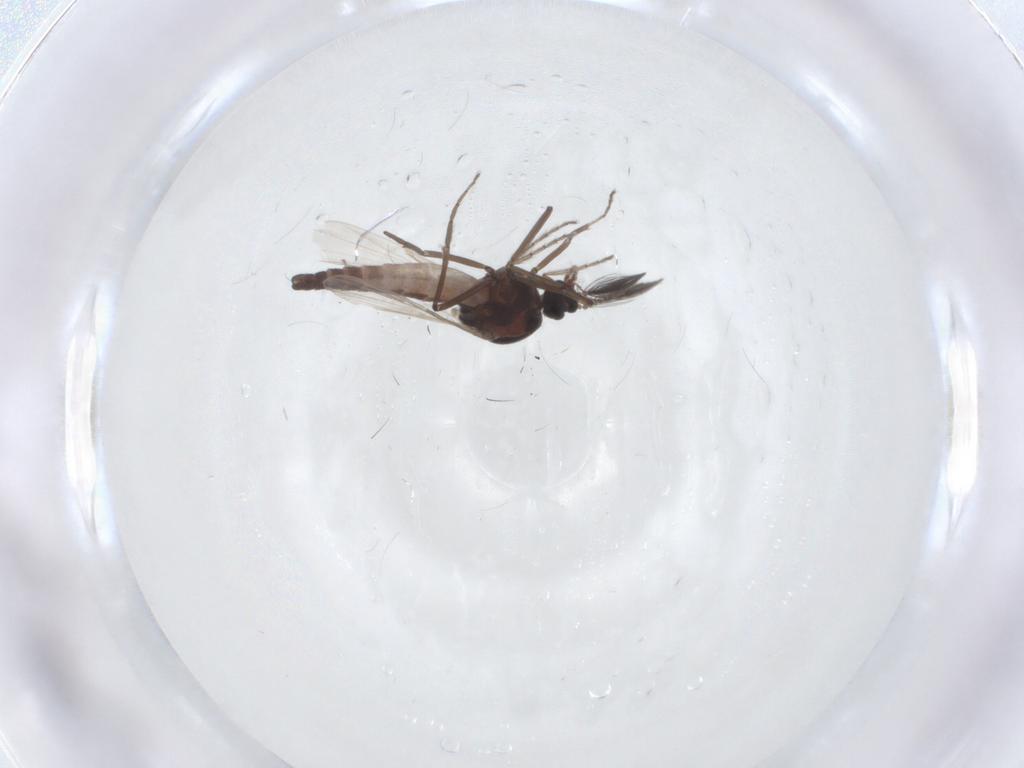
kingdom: Animalia
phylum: Arthropoda
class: Insecta
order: Diptera
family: Ceratopogonidae
